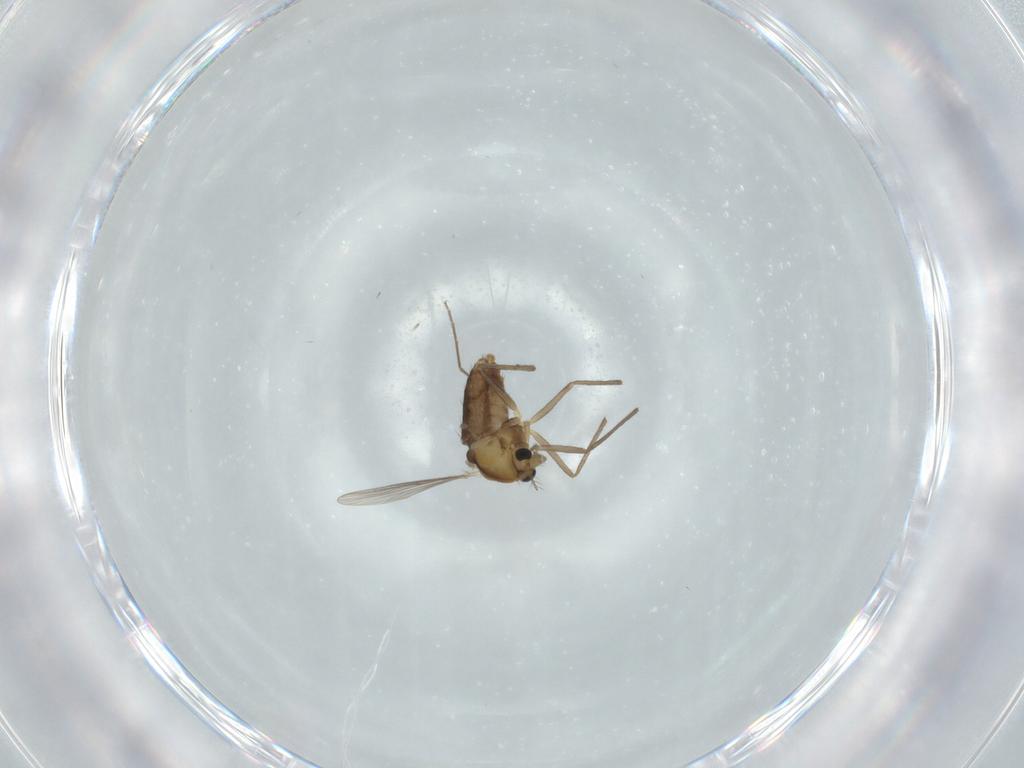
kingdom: Animalia
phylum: Arthropoda
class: Insecta
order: Diptera
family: Chironomidae
